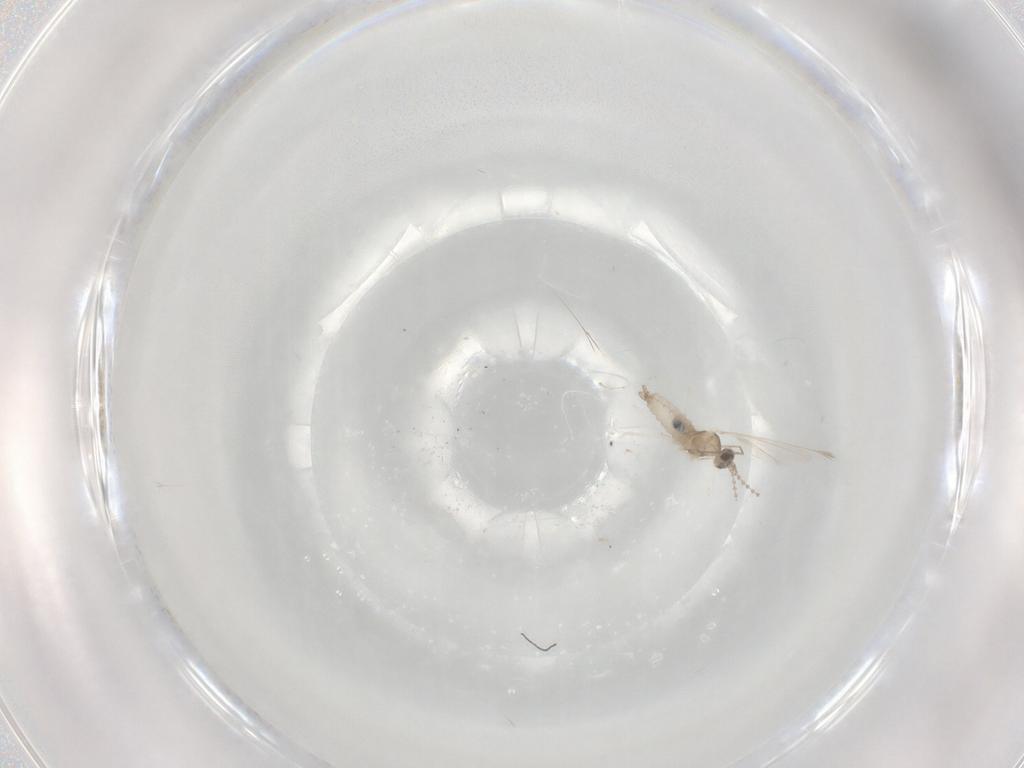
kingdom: Animalia
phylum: Arthropoda
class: Insecta
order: Diptera
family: Cecidomyiidae
